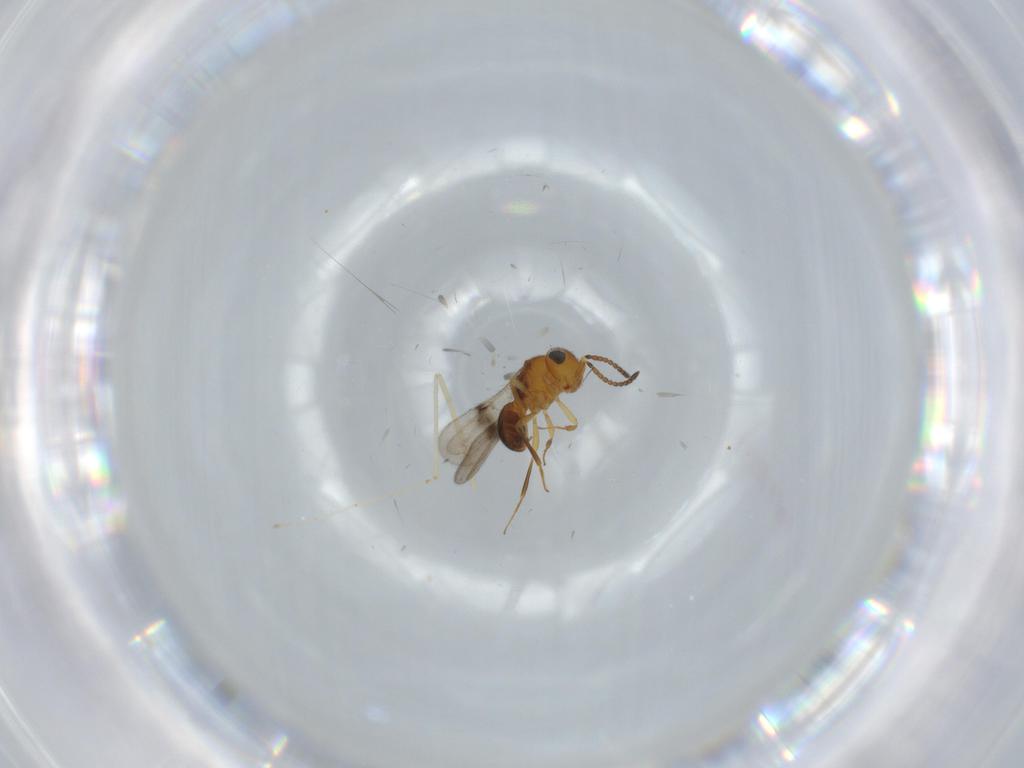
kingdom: Animalia
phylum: Arthropoda
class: Insecta
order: Hymenoptera
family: Scelionidae
